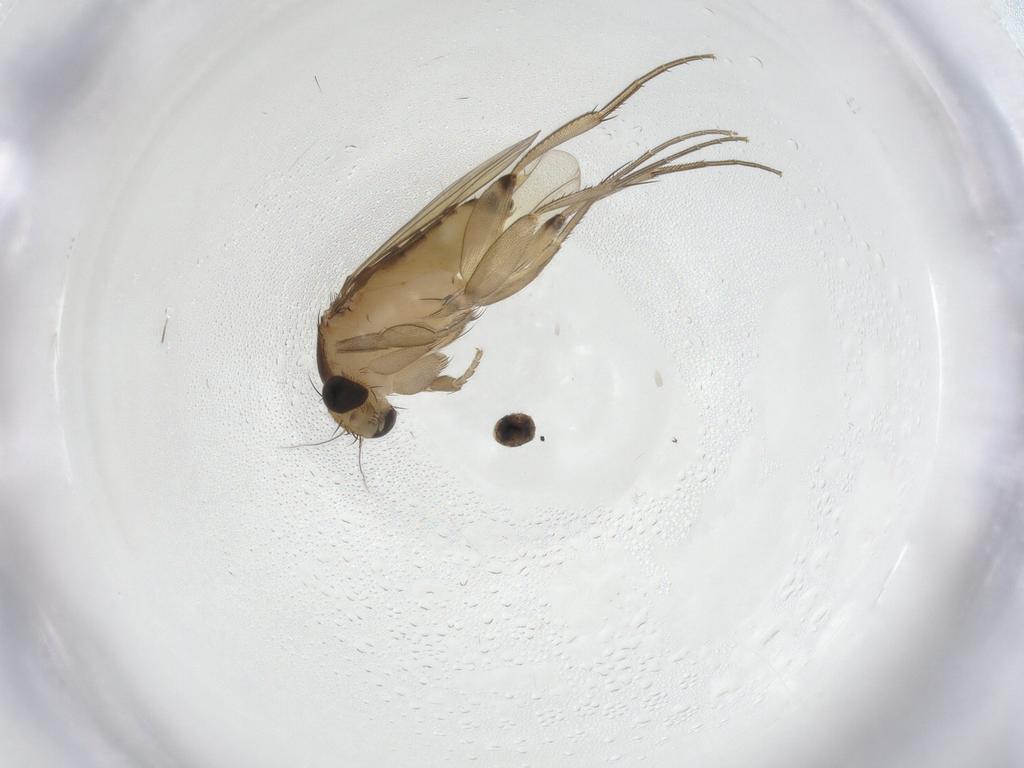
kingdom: Animalia
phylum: Arthropoda
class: Insecta
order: Diptera
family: Phoridae
